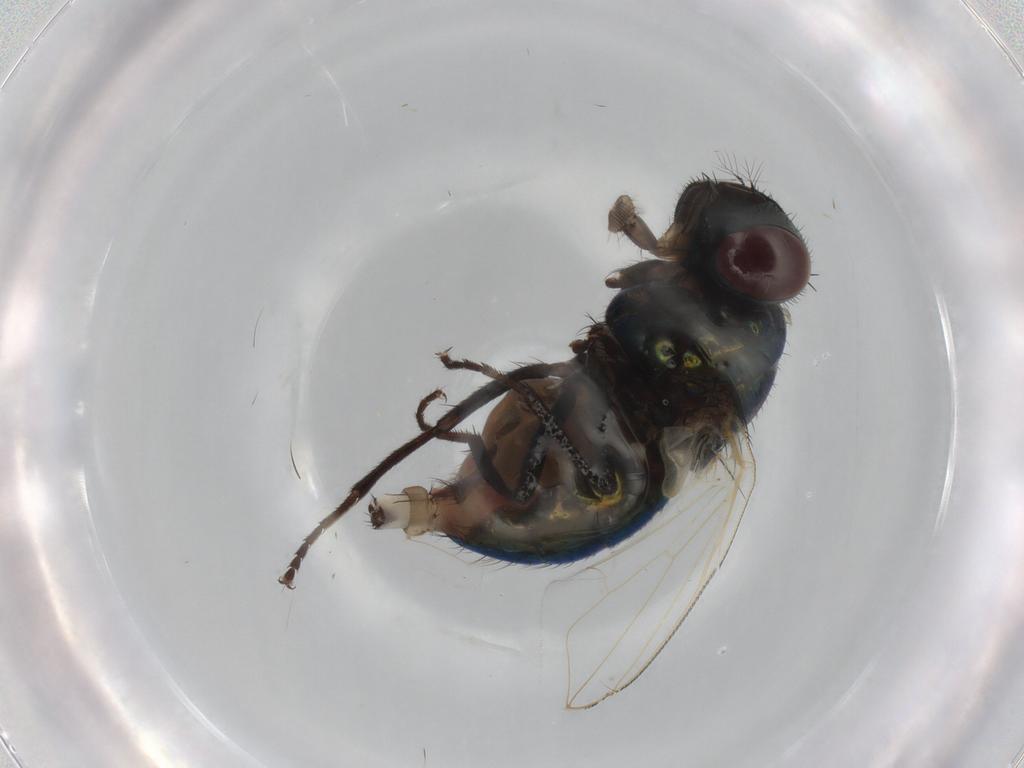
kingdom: Animalia
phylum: Arthropoda
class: Insecta
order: Diptera
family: Muscidae
